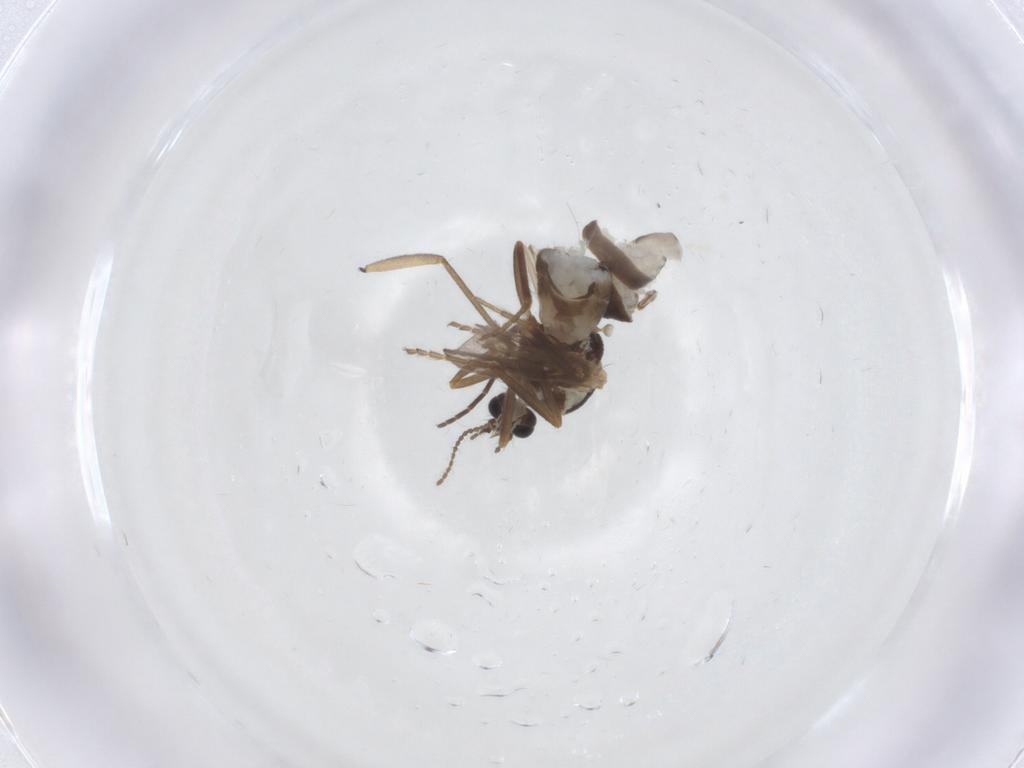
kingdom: Animalia
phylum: Arthropoda
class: Insecta
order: Diptera
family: Ceratopogonidae
